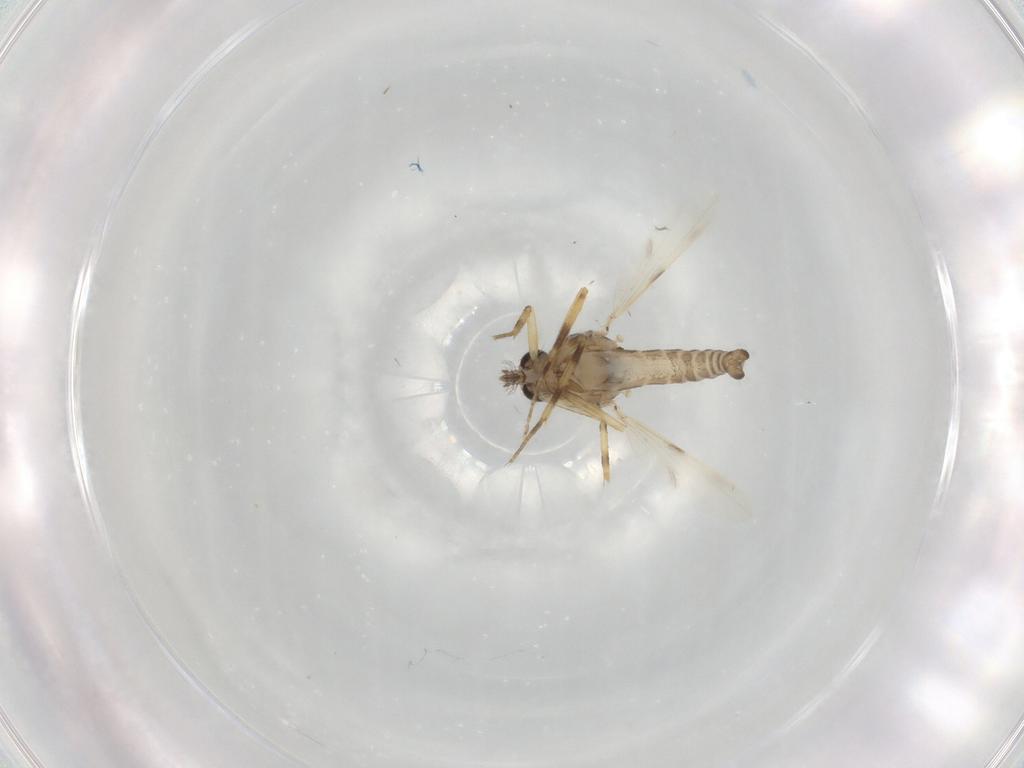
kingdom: Animalia
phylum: Arthropoda
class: Insecta
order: Diptera
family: Ceratopogonidae
